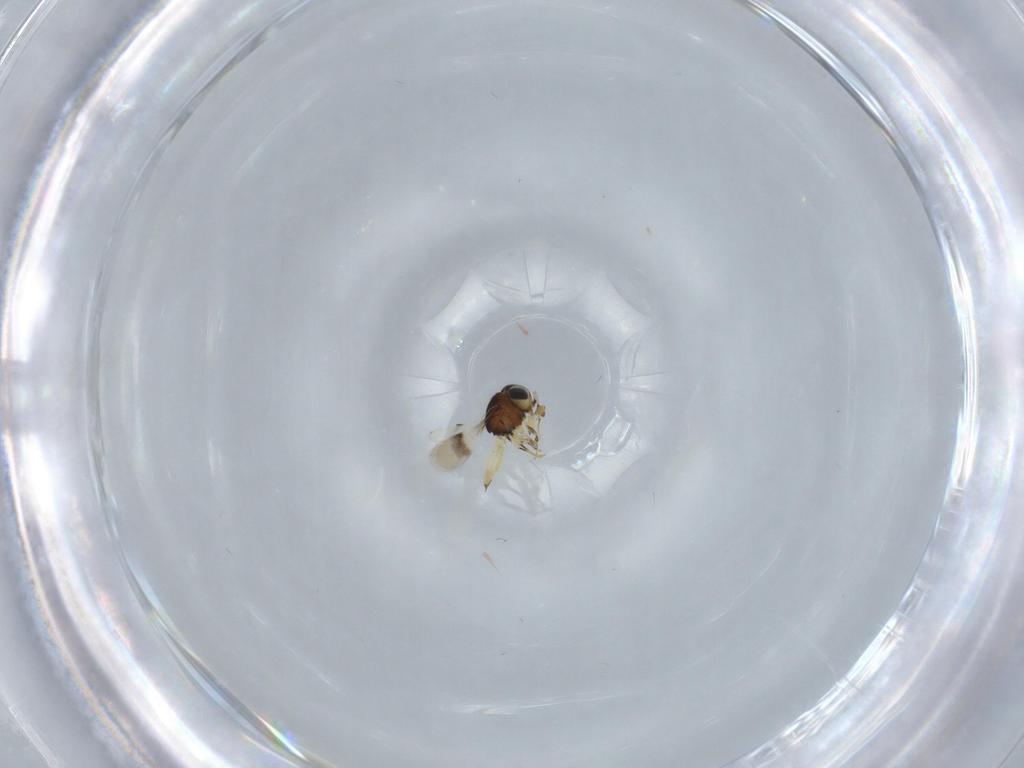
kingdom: Animalia
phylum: Arthropoda
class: Insecta
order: Hymenoptera
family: Scelionidae
